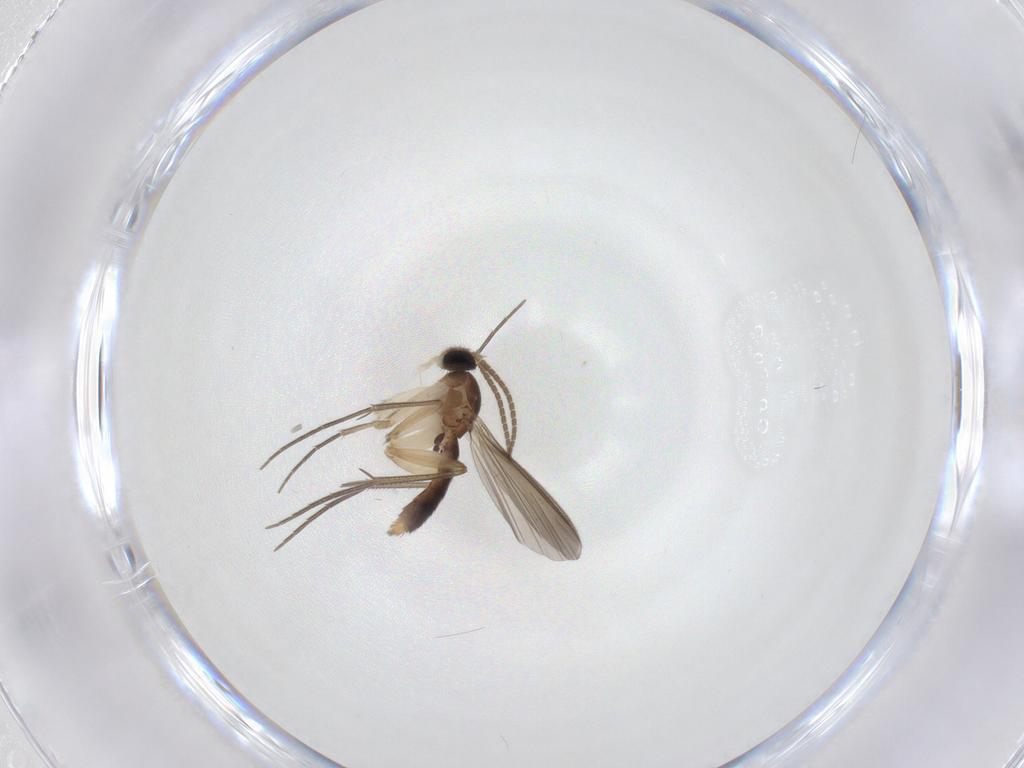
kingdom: Animalia
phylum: Arthropoda
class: Insecta
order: Diptera
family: Mycetophilidae
